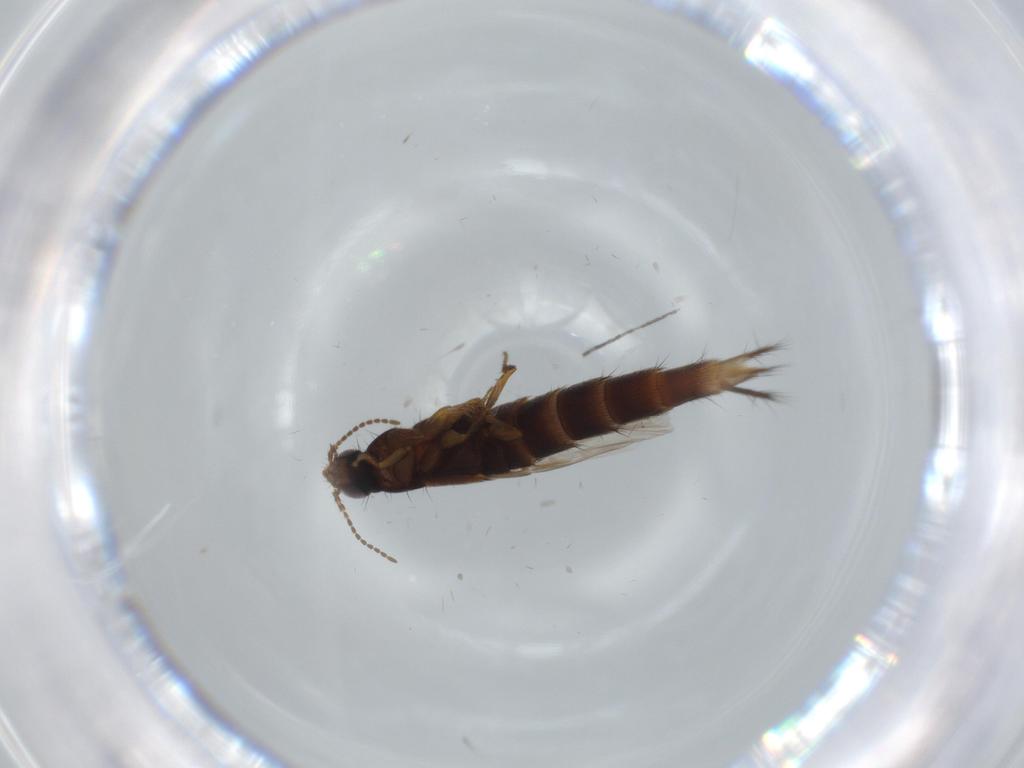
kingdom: Animalia
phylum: Arthropoda
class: Insecta
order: Coleoptera
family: Staphylinidae
